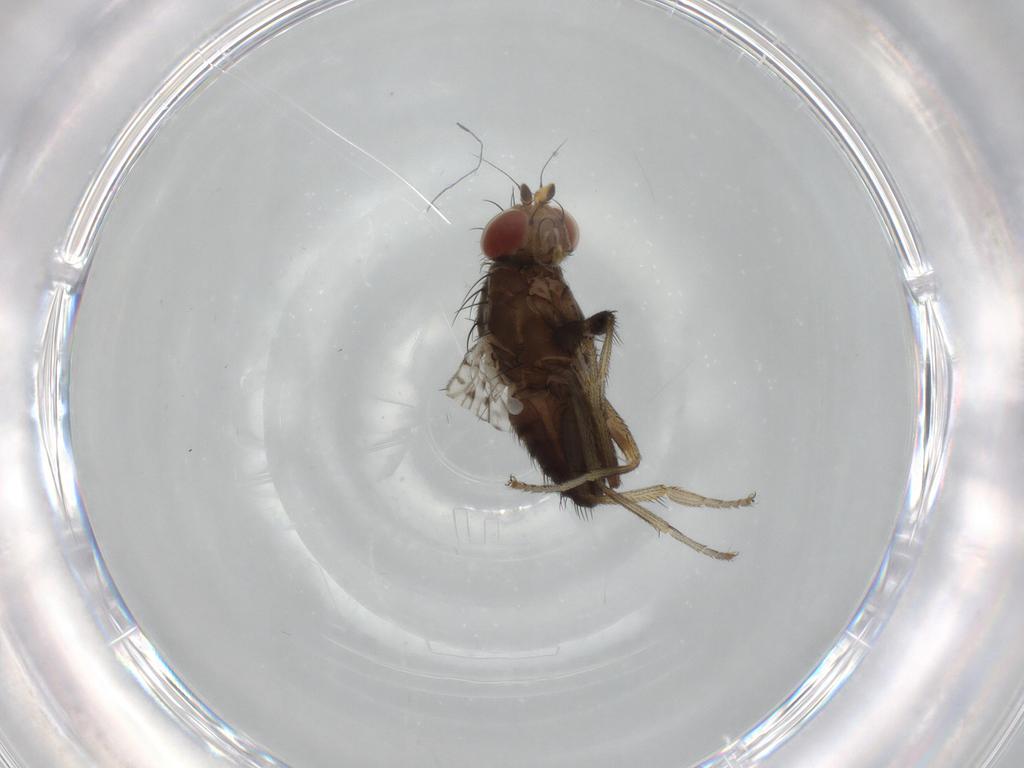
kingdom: Animalia
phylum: Arthropoda
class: Insecta
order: Diptera
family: Tephritidae
